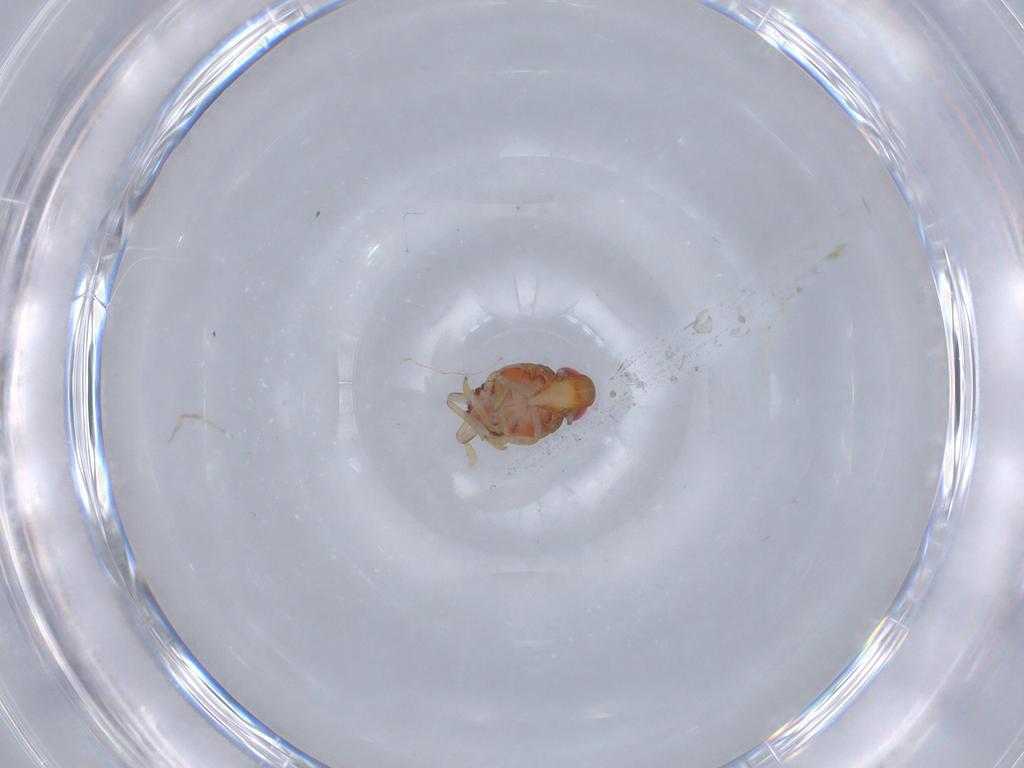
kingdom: Animalia
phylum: Arthropoda
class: Insecta
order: Hemiptera
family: Issidae
